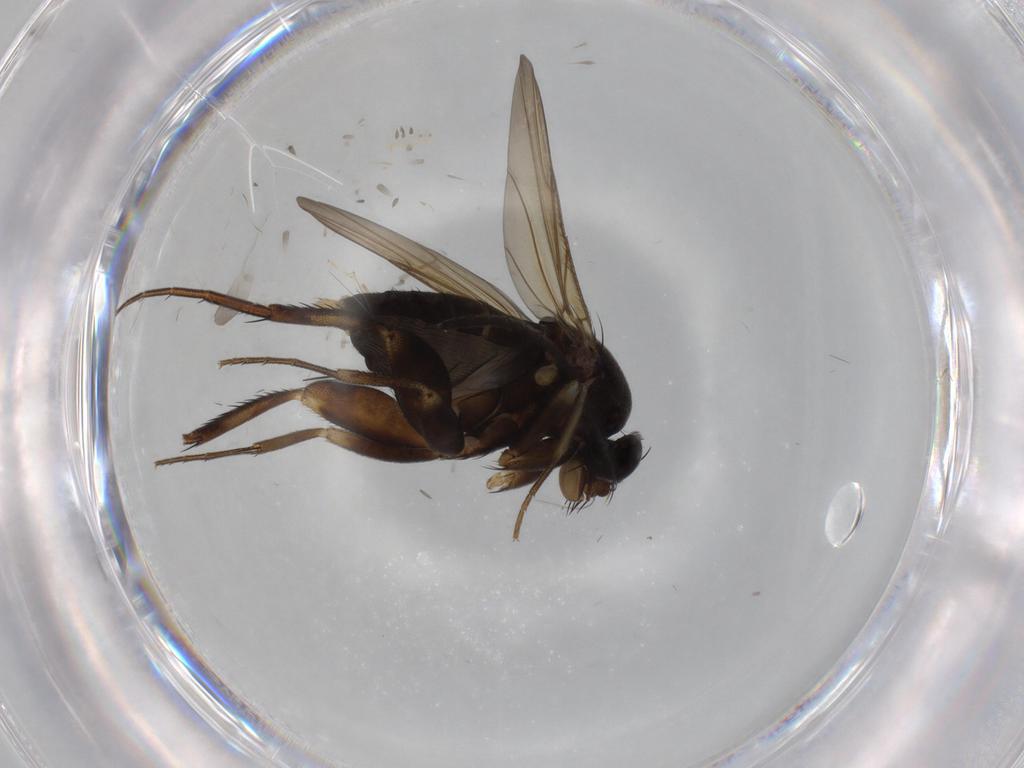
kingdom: Animalia
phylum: Arthropoda
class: Insecta
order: Diptera
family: Phoridae
